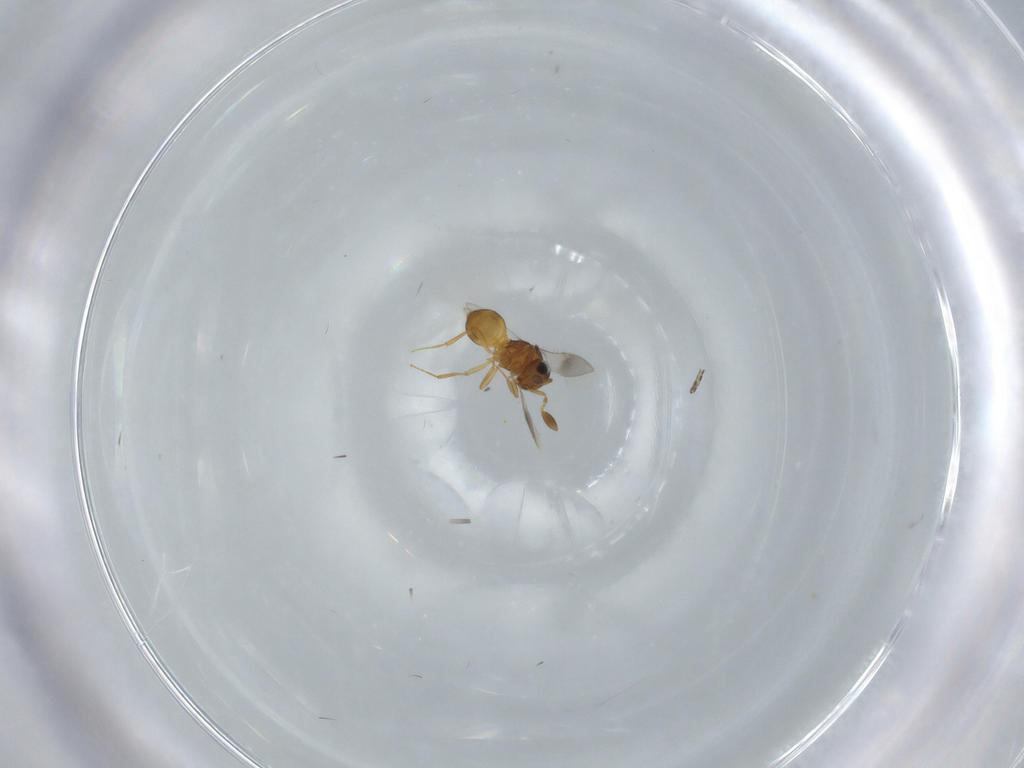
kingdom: Animalia
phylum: Arthropoda
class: Insecta
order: Hymenoptera
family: Scelionidae
